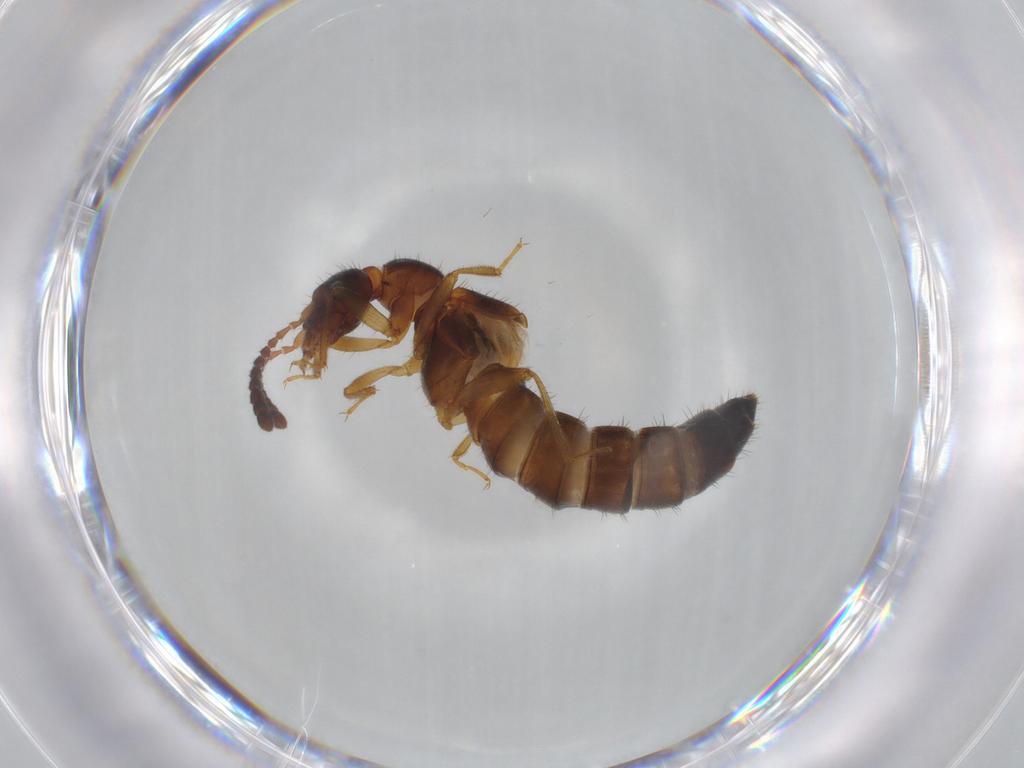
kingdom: Animalia
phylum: Arthropoda
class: Insecta
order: Coleoptera
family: Staphylinidae
